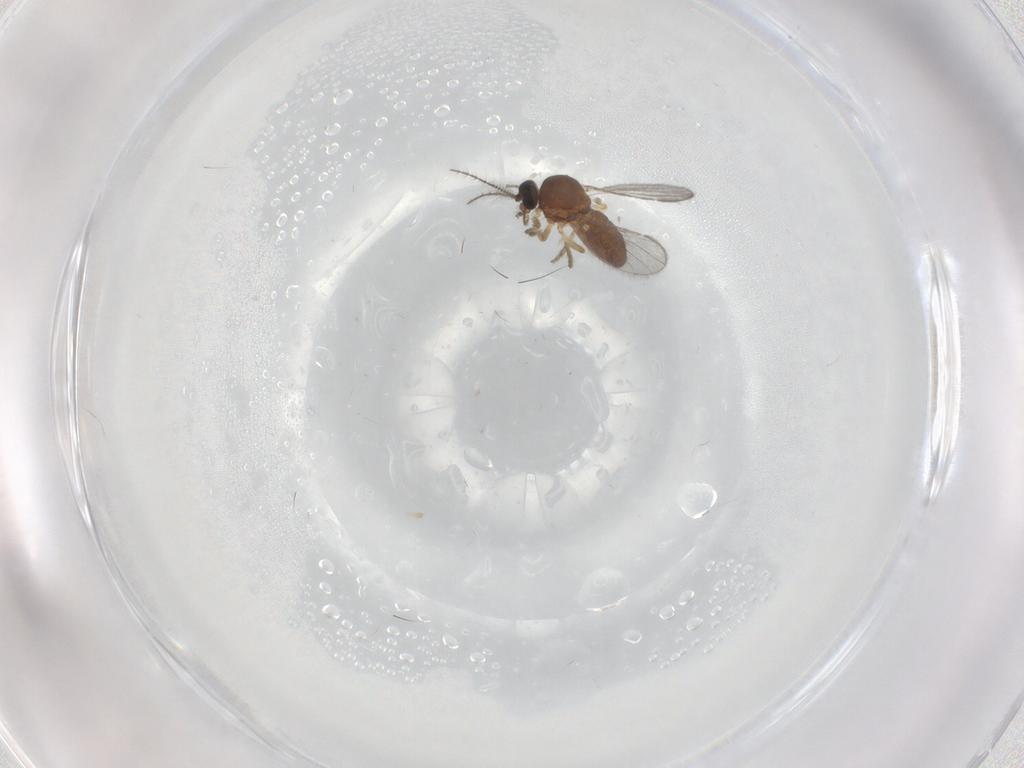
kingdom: Animalia
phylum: Arthropoda
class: Insecta
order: Diptera
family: Ceratopogonidae
